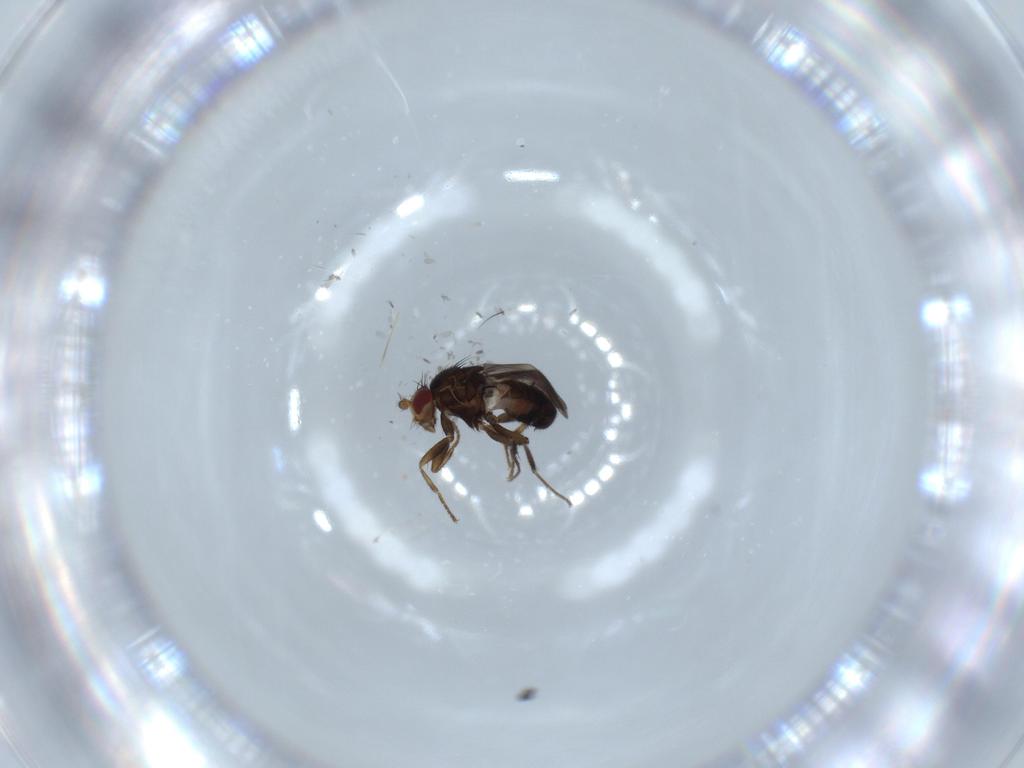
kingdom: Animalia
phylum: Arthropoda
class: Insecta
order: Diptera
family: Sphaeroceridae
